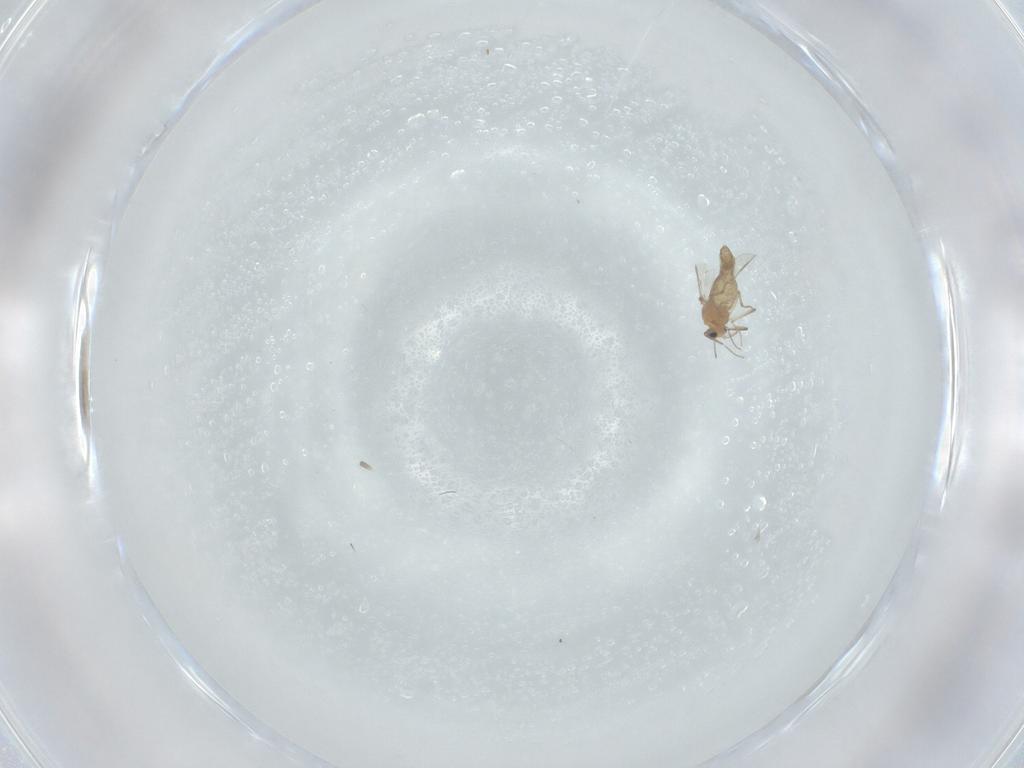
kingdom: Animalia
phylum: Arthropoda
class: Insecta
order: Diptera
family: Chironomidae
